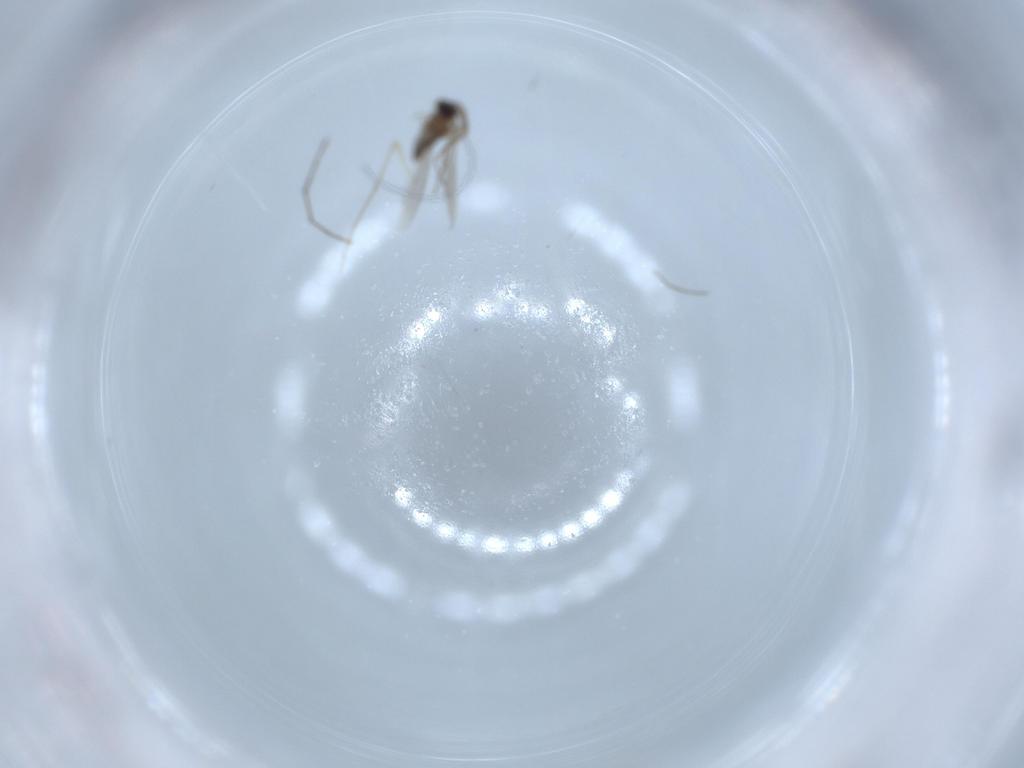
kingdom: Animalia
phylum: Arthropoda
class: Insecta
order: Diptera
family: Cecidomyiidae
